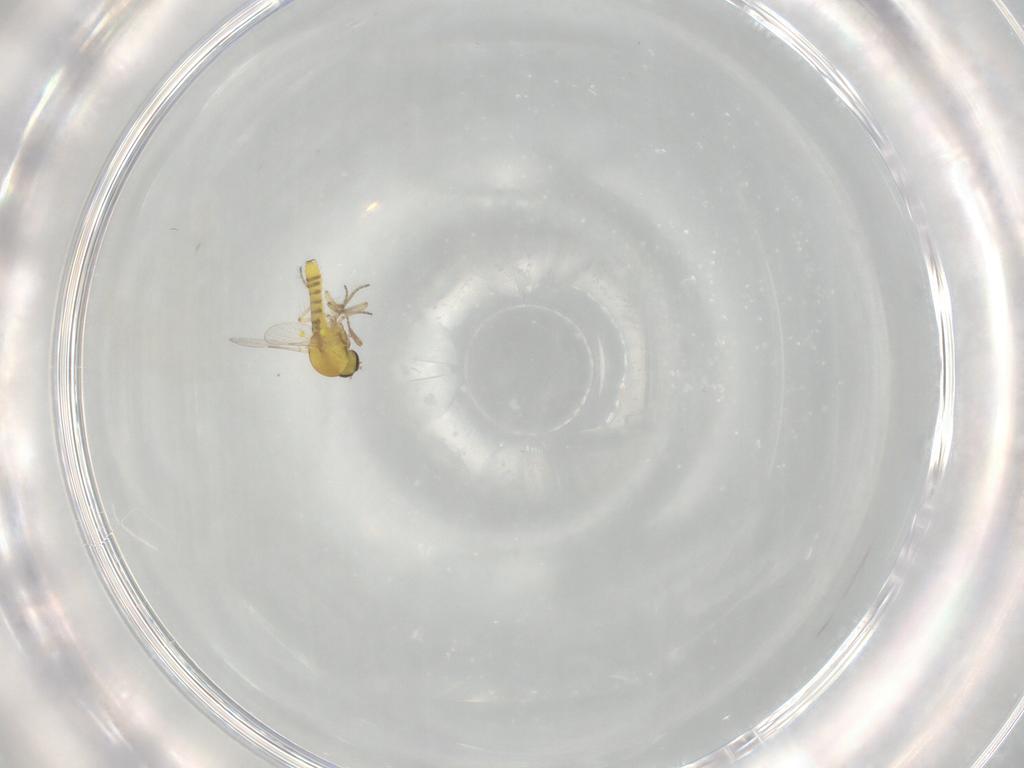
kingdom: Animalia
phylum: Arthropoda
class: Insecta
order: Diptera
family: Ceratopogonidae
